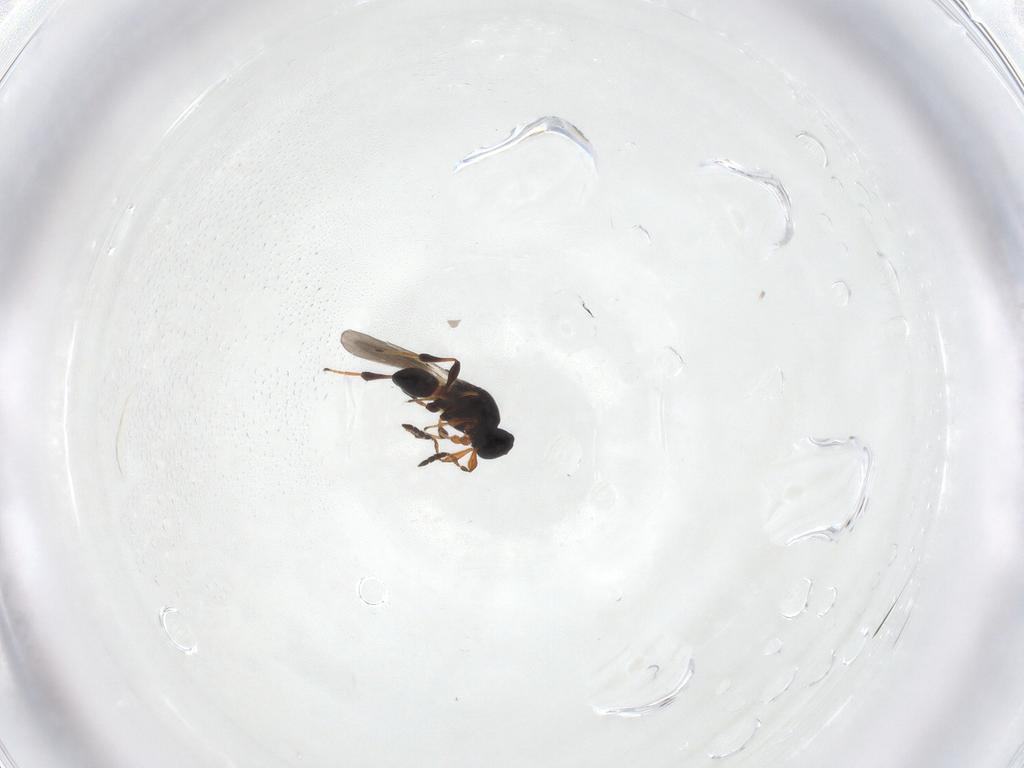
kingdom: Animalia
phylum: Arthropoda
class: Insecta
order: Hymenoptera
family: Platygastridae
